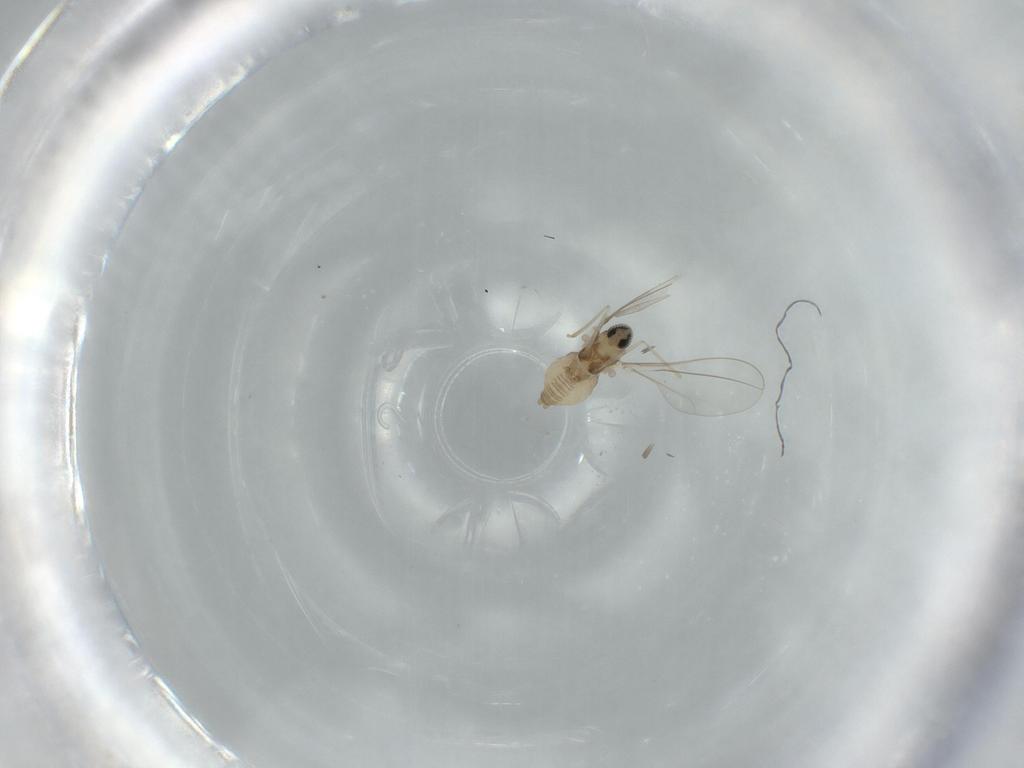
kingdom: Animalia
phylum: Arthropoda
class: Insecta
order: Diptera
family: Cecidomyiidae
